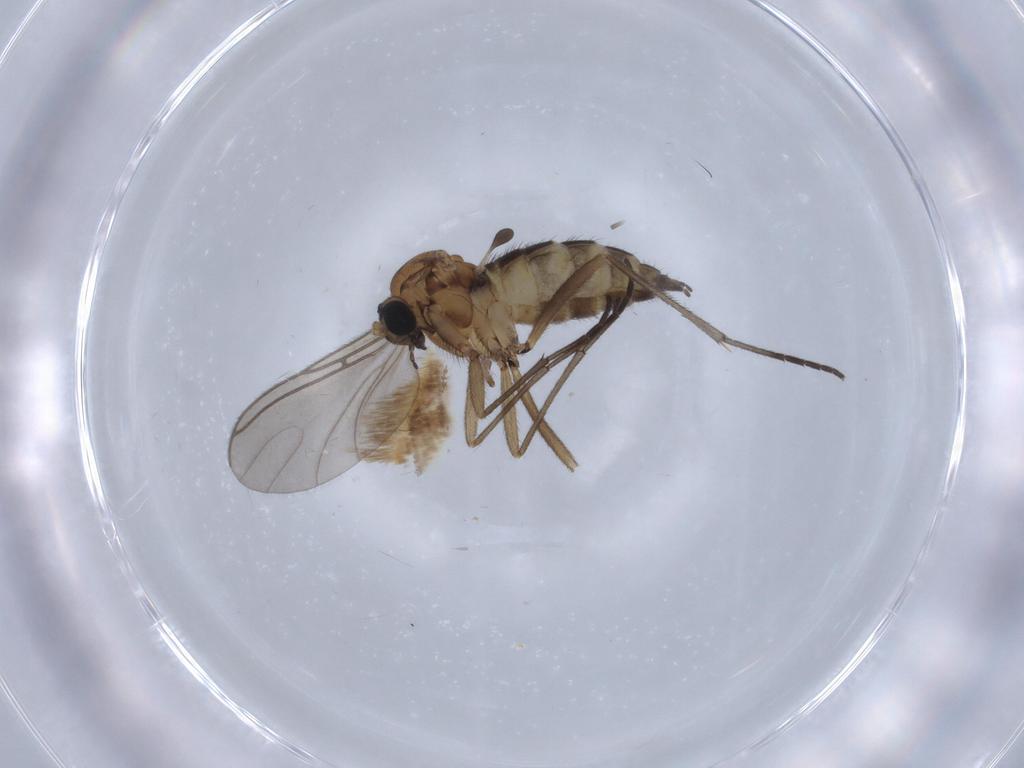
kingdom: Animalia
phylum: Arthropoda
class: Insecta
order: Diptera
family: Sciaridae
